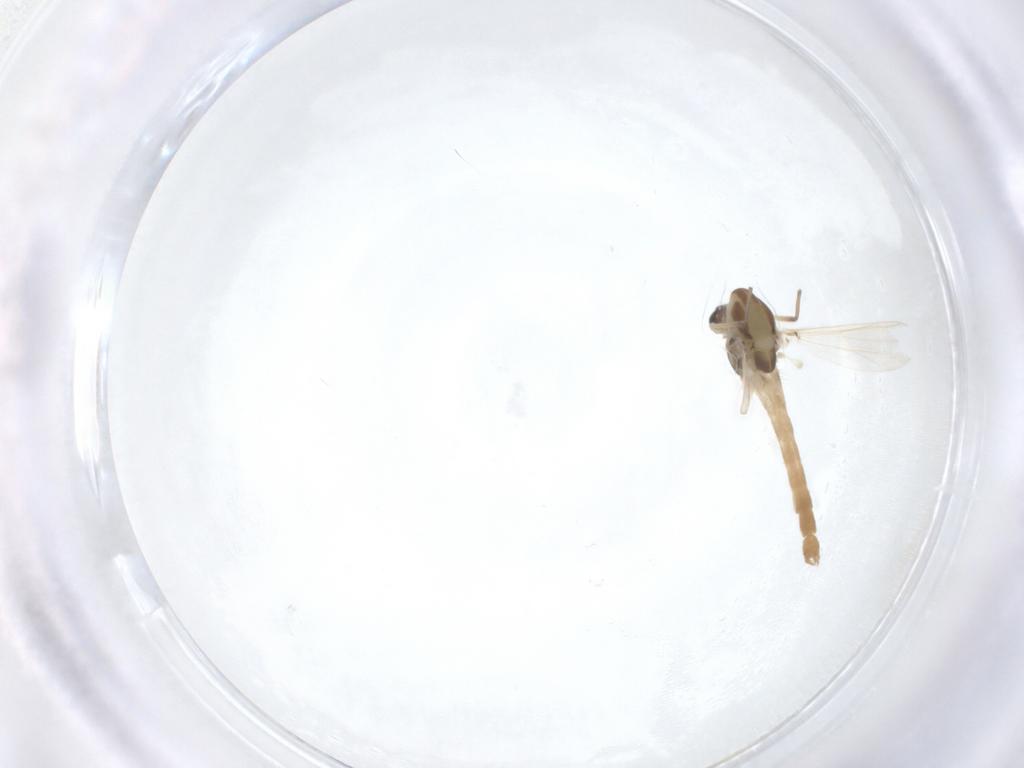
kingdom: Animalia
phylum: Arthropoda
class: Insecta
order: Diptera
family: Chironomidae
